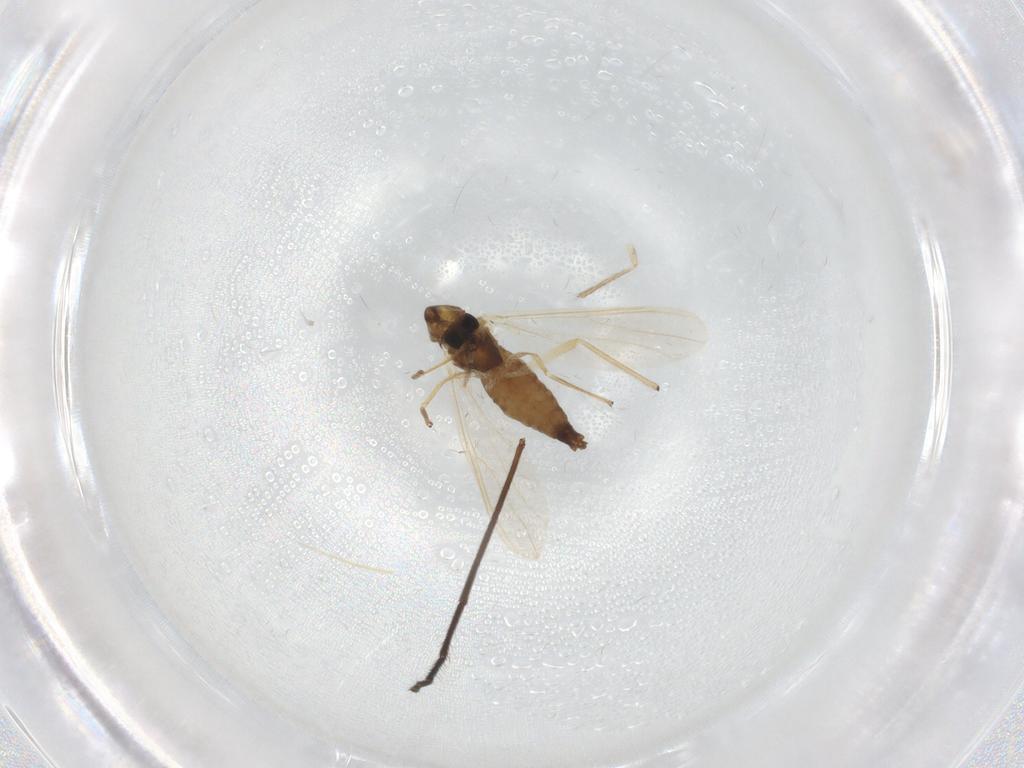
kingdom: Animalia
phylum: Arthropoda
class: Insecta
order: Diptera
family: Chironomidae
